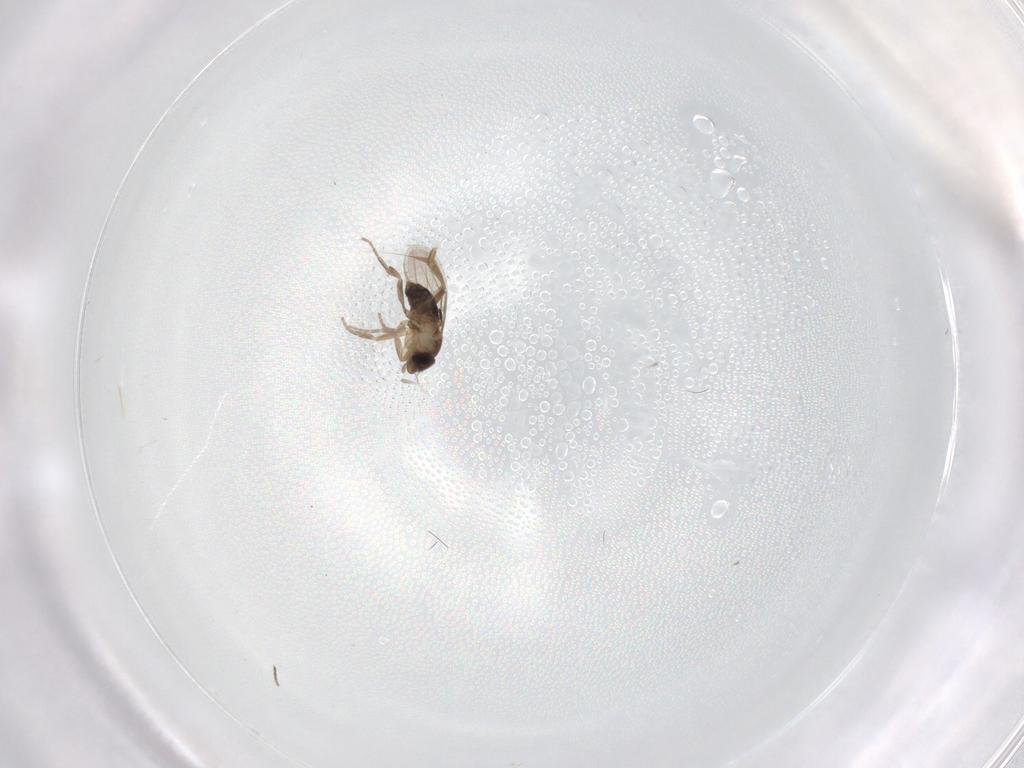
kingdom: Animalia
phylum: Arthropoda
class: Insecta
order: Diptera
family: Phoridae
